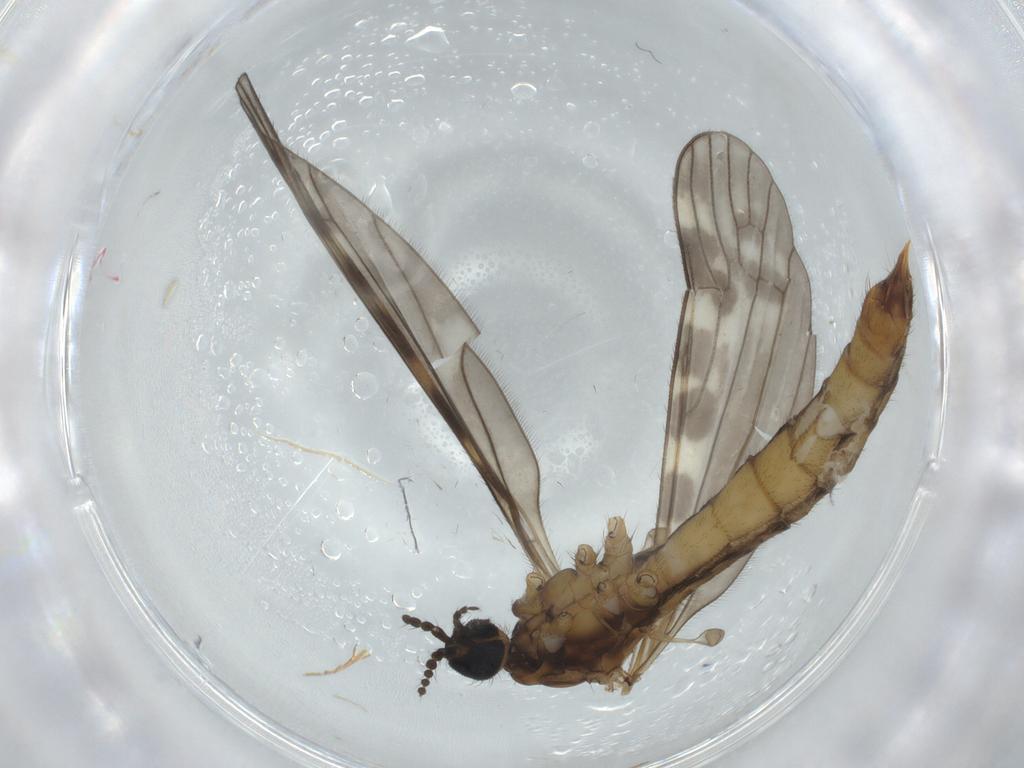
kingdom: Animalia
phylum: Arthropoda
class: Insecta
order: Diptera
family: Limoniidae
